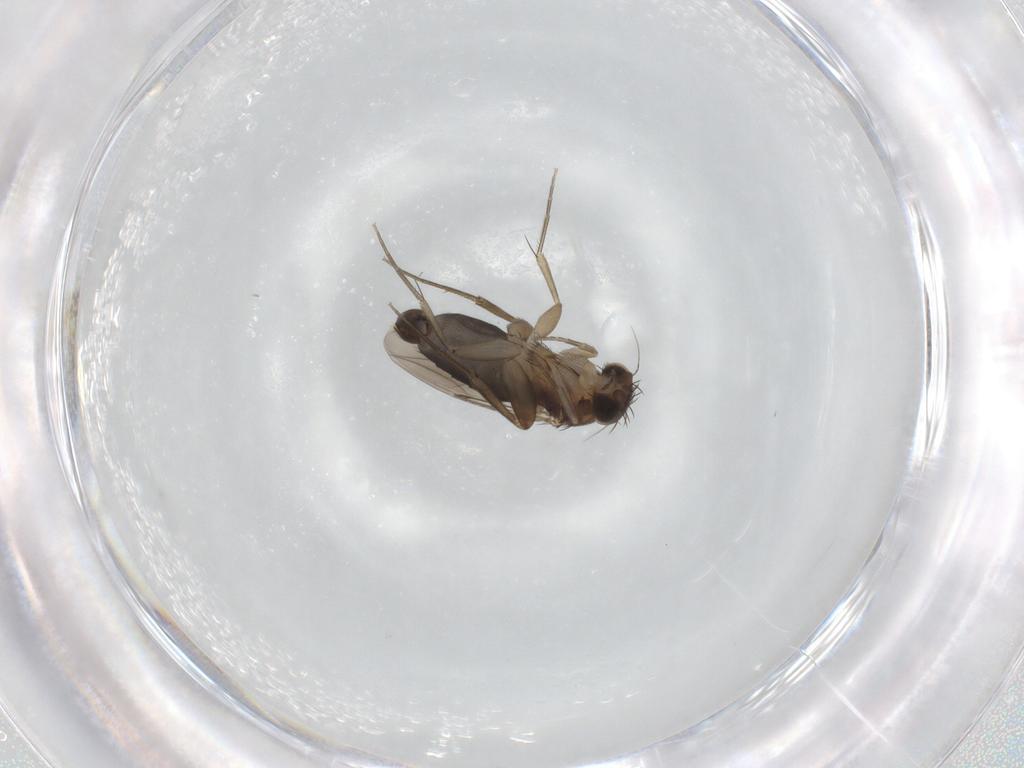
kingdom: Animalia
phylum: Arthropoda
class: Insecta
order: Diptera
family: Phoridae
